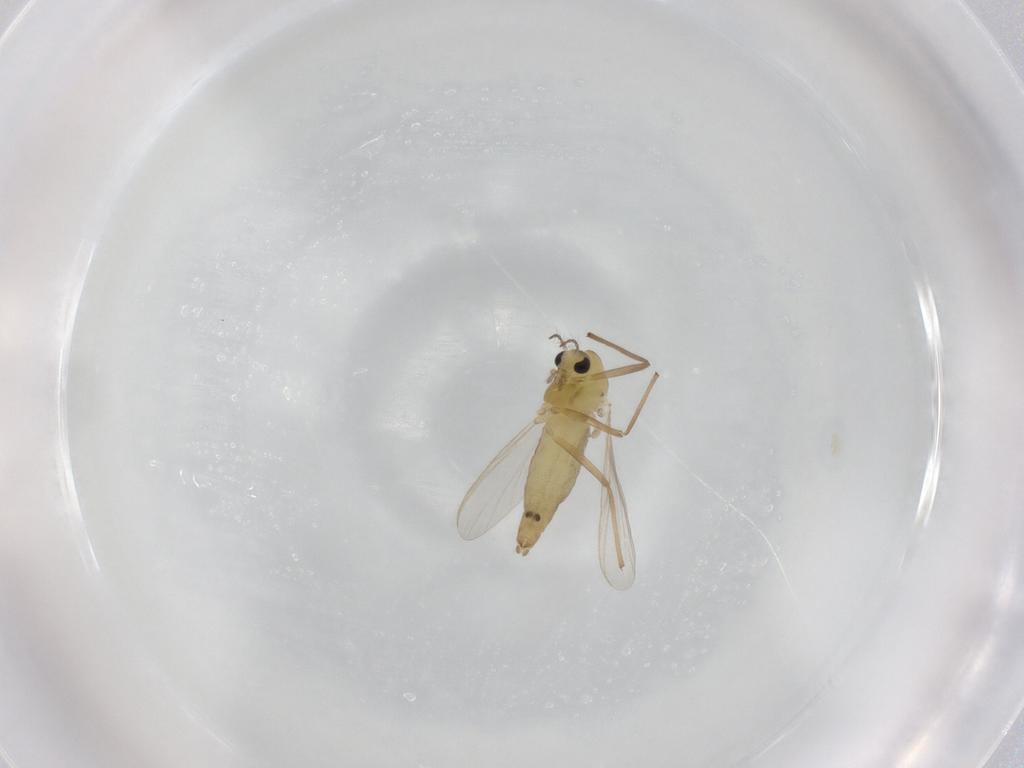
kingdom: Animalia
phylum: Arthropoda
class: Insecta
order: Diptera
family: Chironomidae
